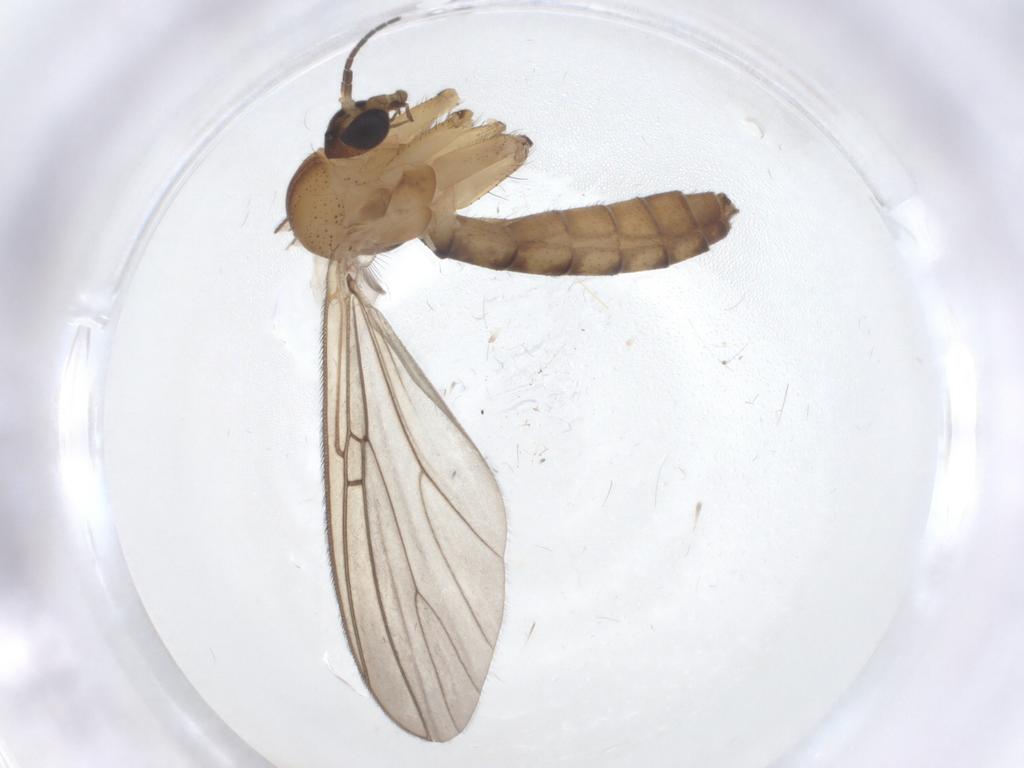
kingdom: Animalia
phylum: Arthropoda
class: Insecta
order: Diptera
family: Mycetophilidae
